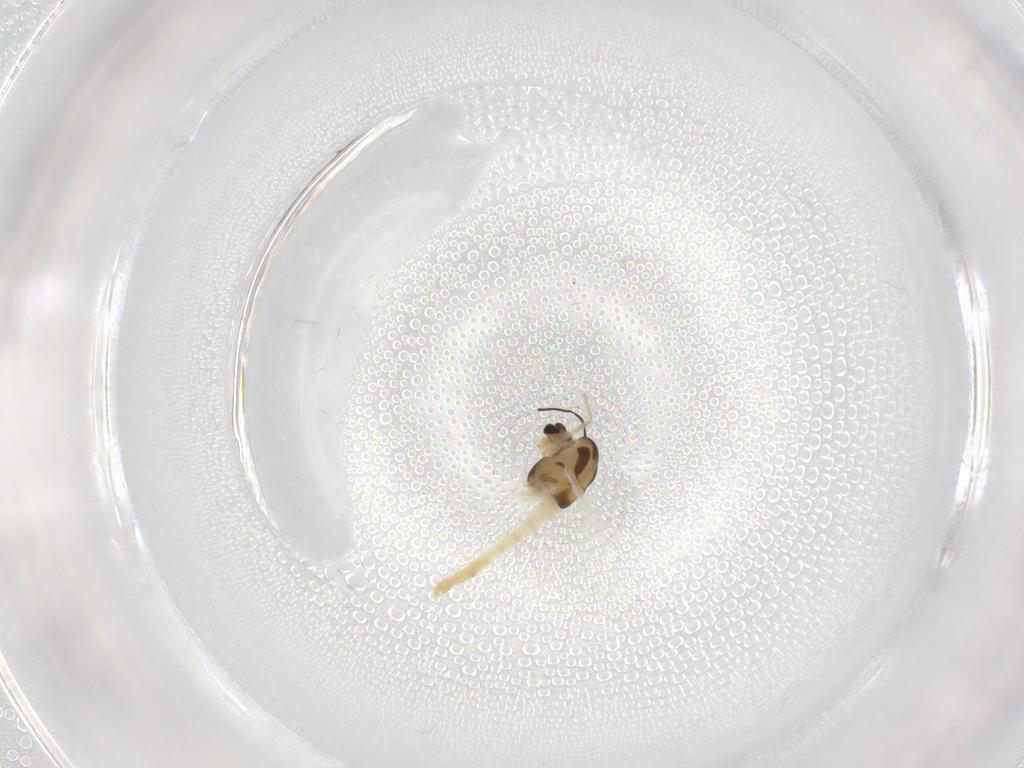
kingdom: Animalia
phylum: Arthropoda
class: Insecta
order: Diptera
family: Chironomidae
